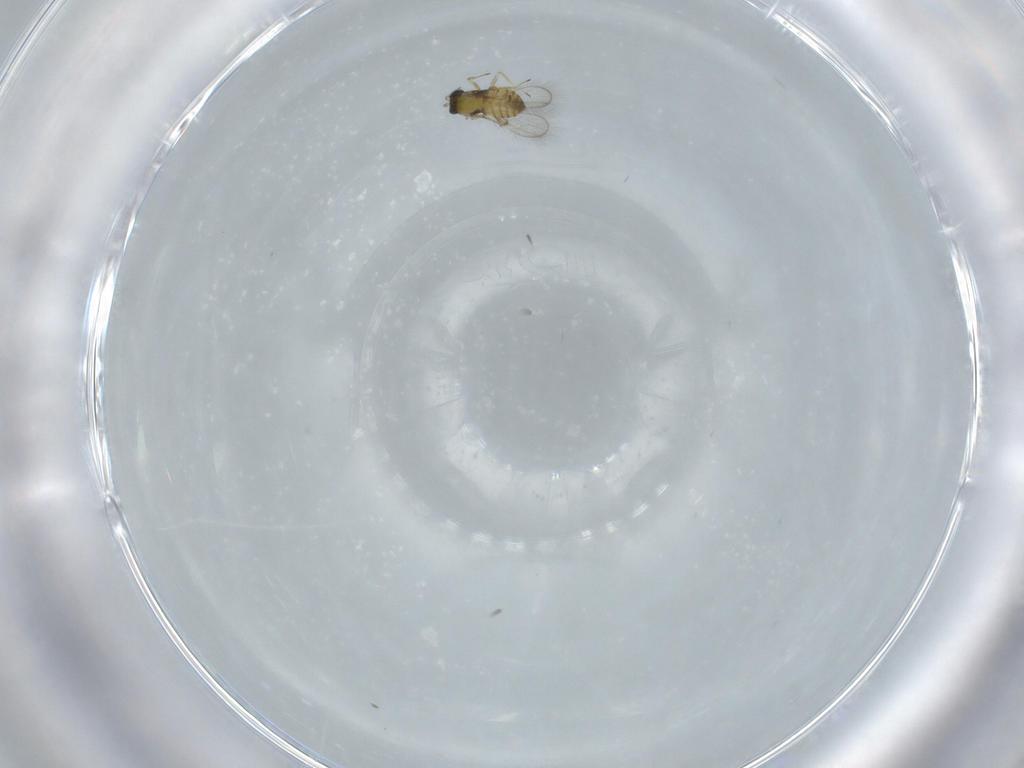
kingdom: Animalia
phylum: Arthropoda
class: Insecta
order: Hymenoptera
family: Trichogrammatidae
